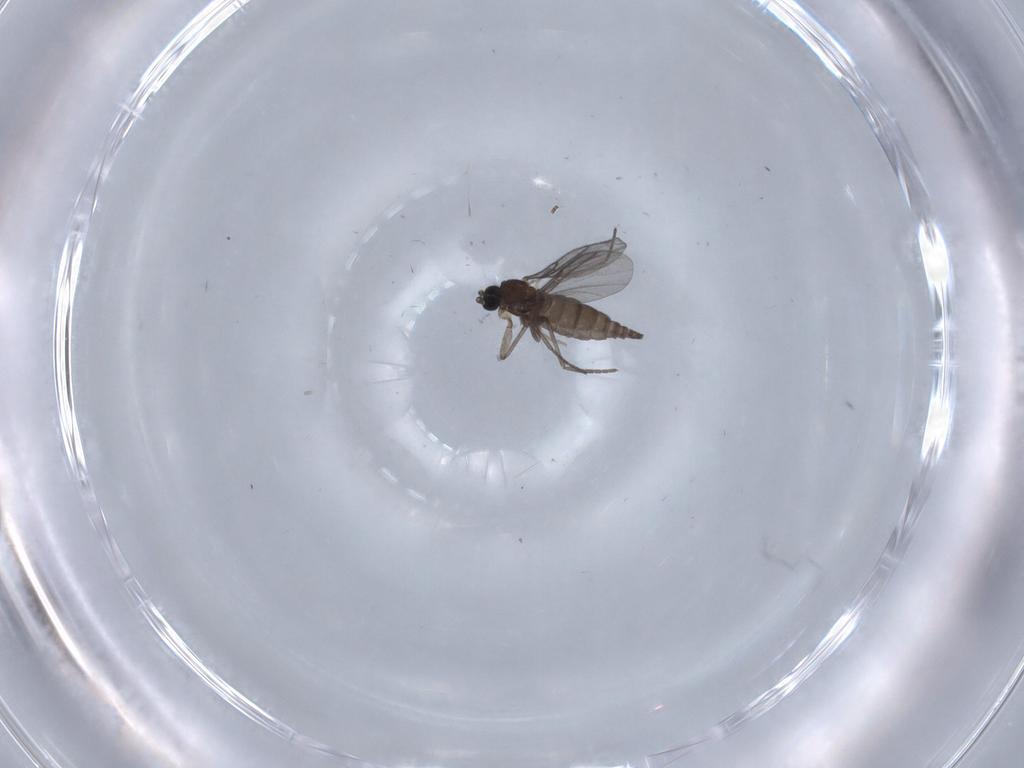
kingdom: Animalia
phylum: Arthropoda
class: Insecta
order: Diptera
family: Chironomidae
